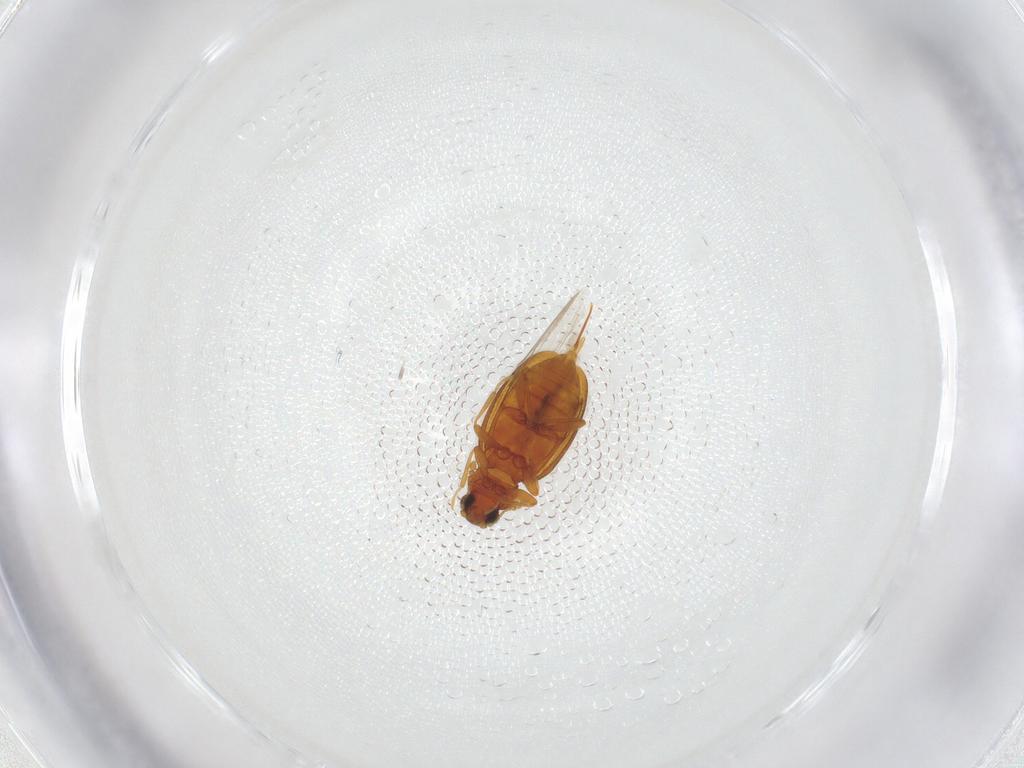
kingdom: Animalia
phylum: Arthropoda
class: Insecta
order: Coleoptera
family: Latridiidae
